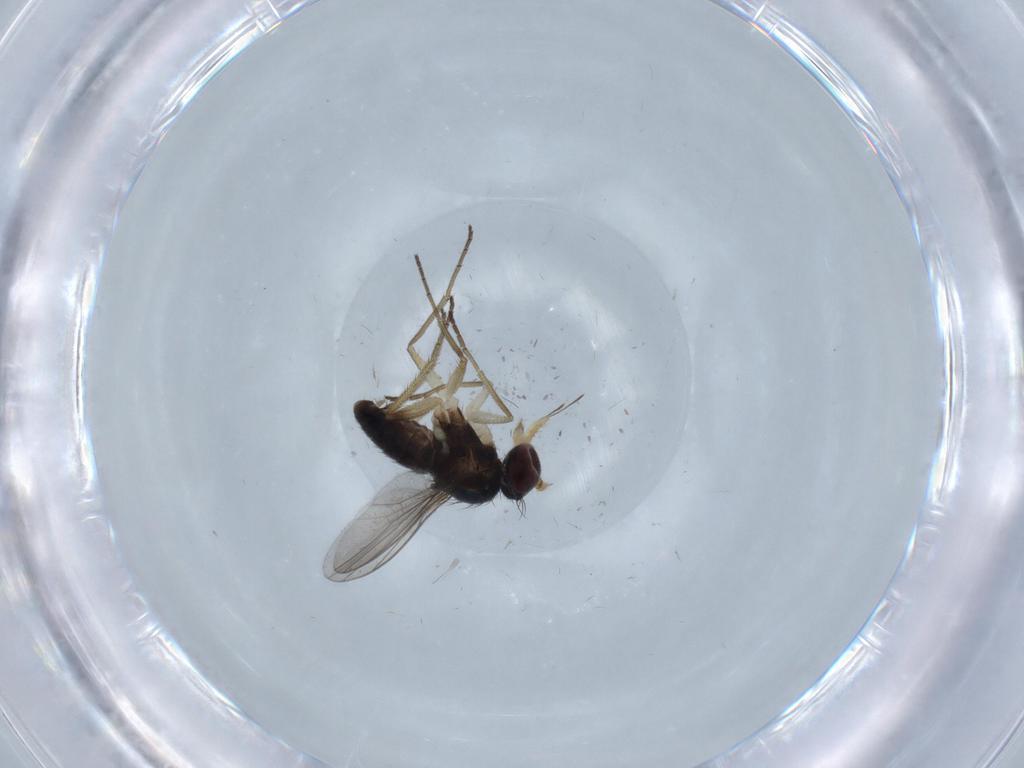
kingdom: Animalia
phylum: Arthropoda
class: Insecta
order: Diptera
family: Dolichopodidae
